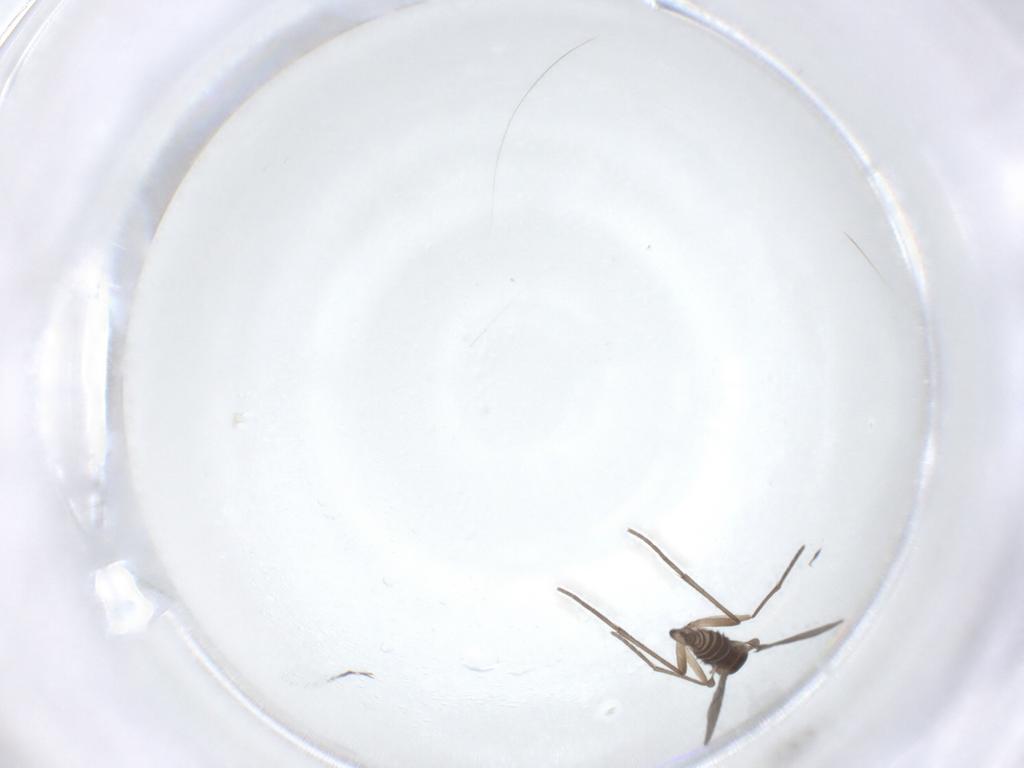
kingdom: Animalia
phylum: Arthropoda
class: Insecta
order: Diptera
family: Sciaridae
